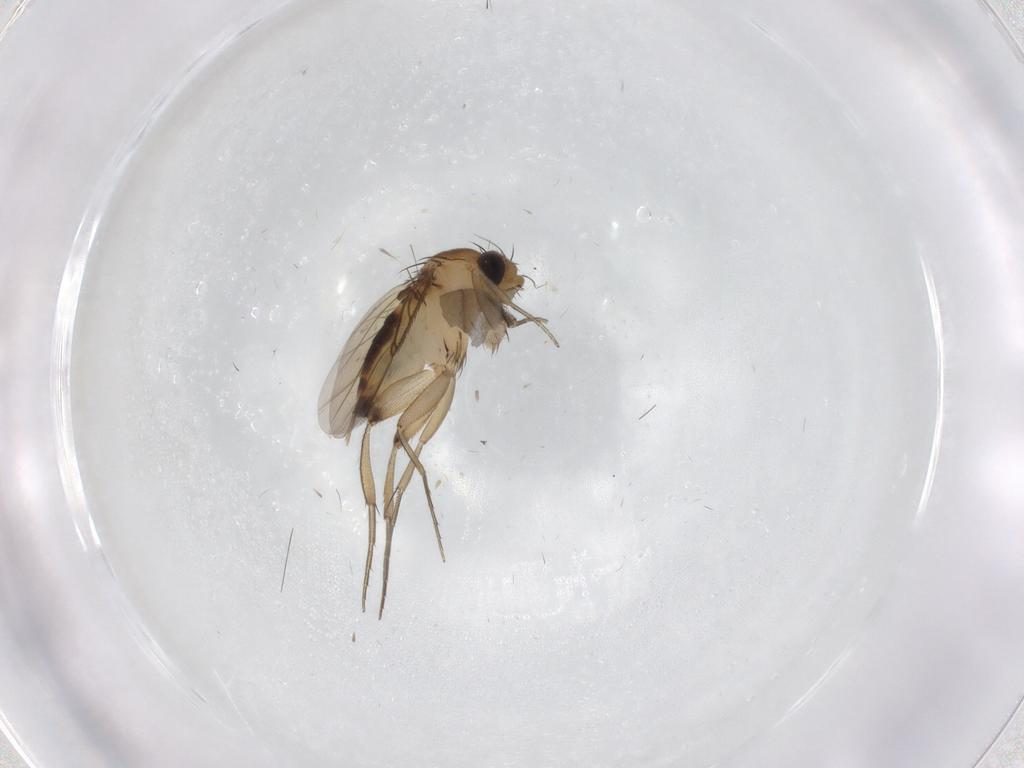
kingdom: Animalia
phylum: Arthropoda
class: Insecta
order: Diptera
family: Phoridae
